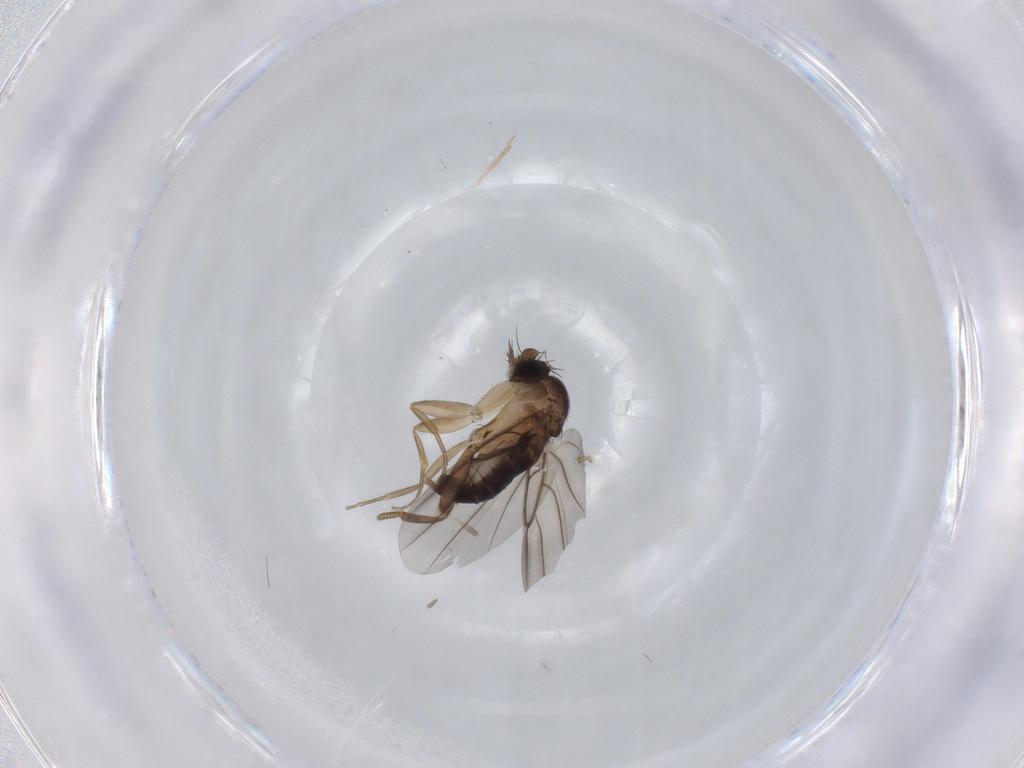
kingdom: Animalia
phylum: Arthropoda
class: Insecta
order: Diptera
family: Phoridae
